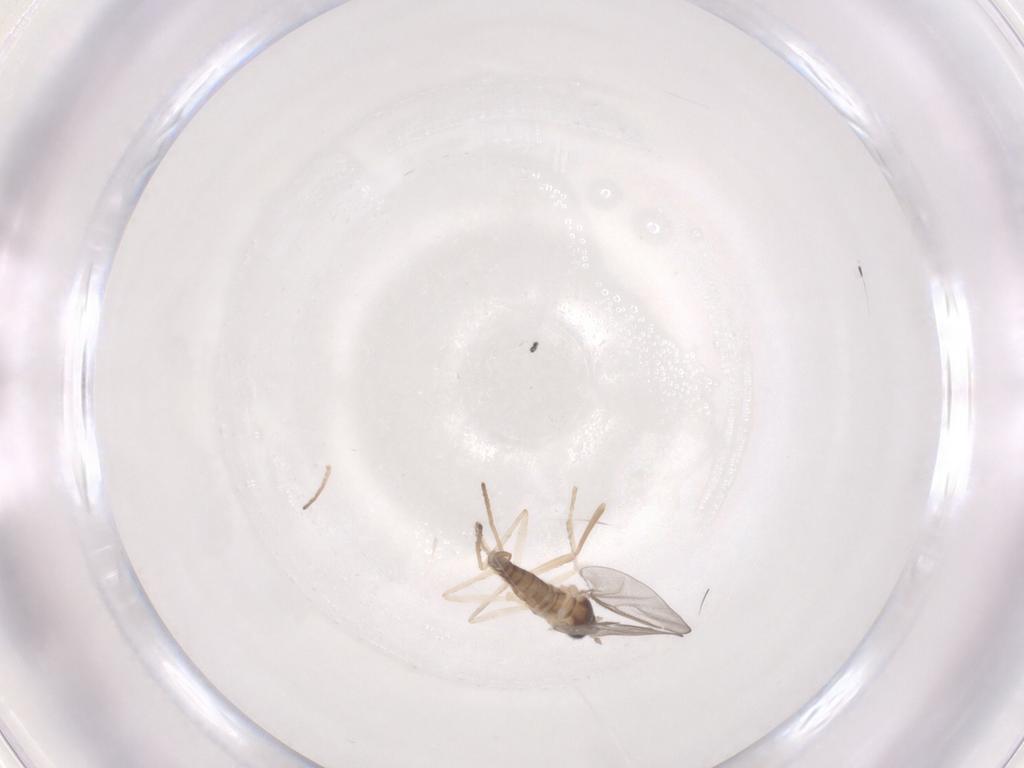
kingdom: Animalia
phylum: Arthropoda
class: Insecta
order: Diptera
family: Cecidomyiidae
